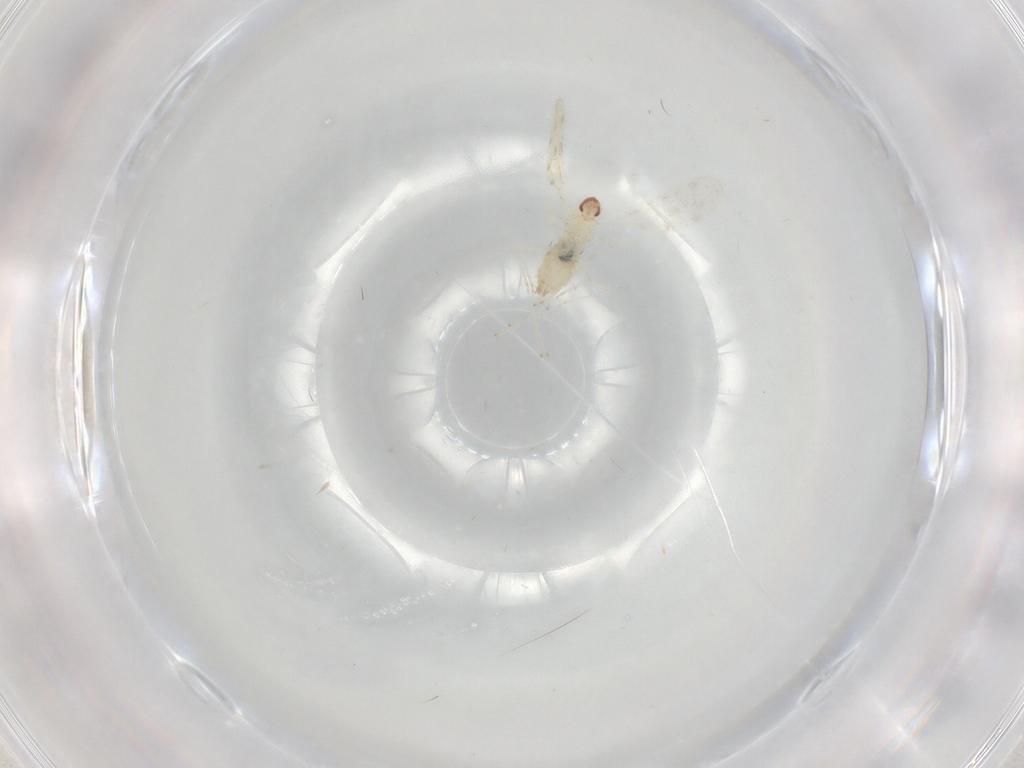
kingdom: Animalia
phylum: Arthropoda
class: Insecta
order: Diptera
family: Cecidomyiidae
